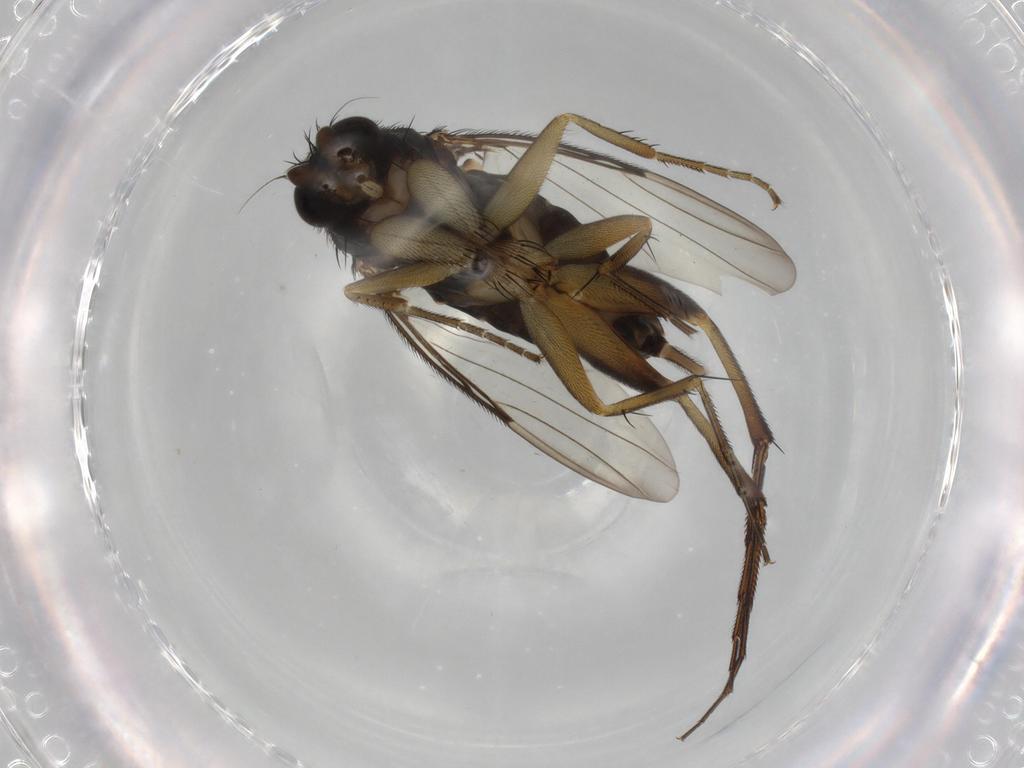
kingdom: Animalia
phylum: Arthropoda
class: Insecta
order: Diptera
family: Phoridae
